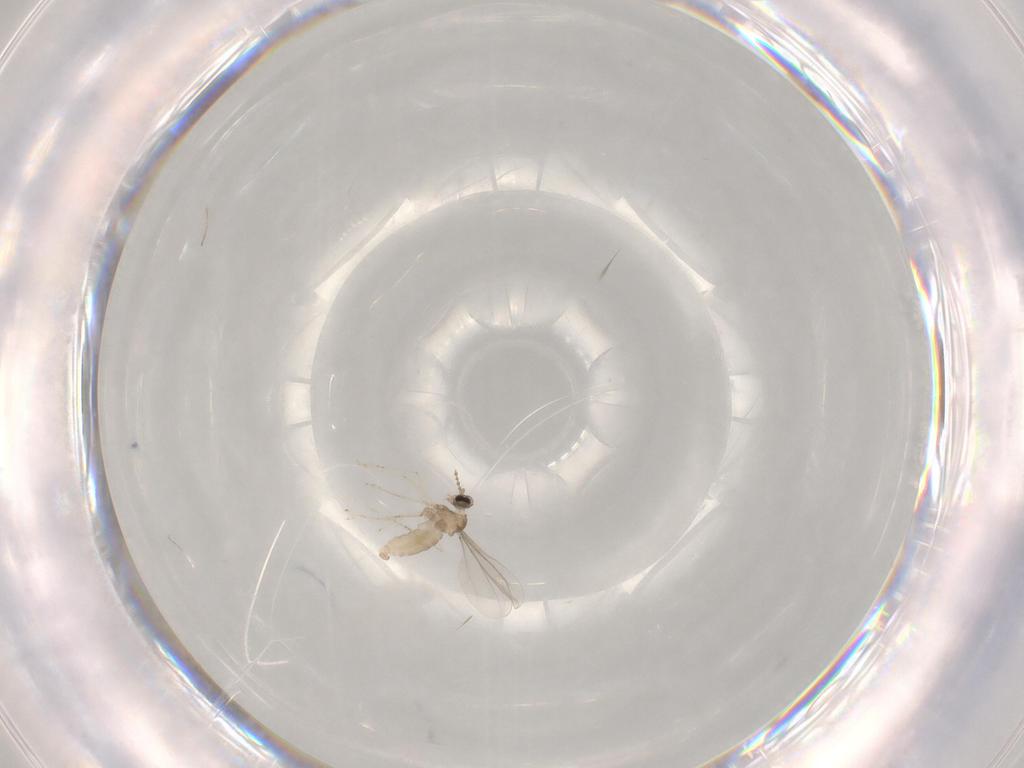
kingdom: Animalia
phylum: Arthropoda
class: Insecta
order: Diptera
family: Cecidomyiidae
